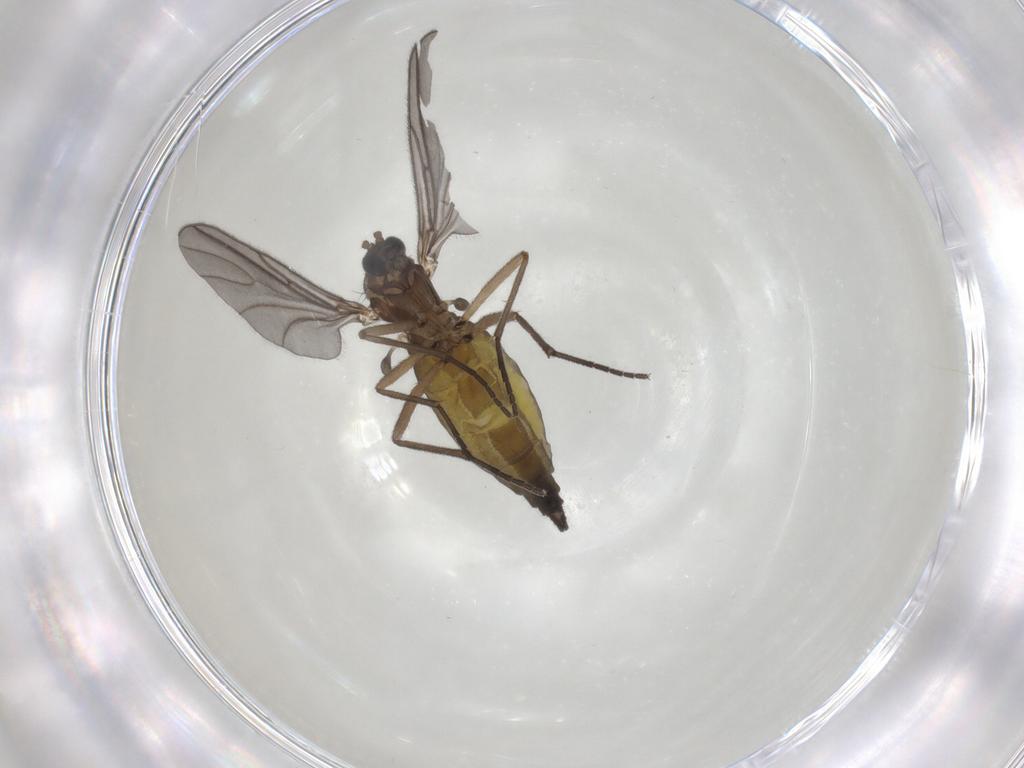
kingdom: Animalia
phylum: Arthropoda
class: Insecta
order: Diptera
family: Sciaridae
